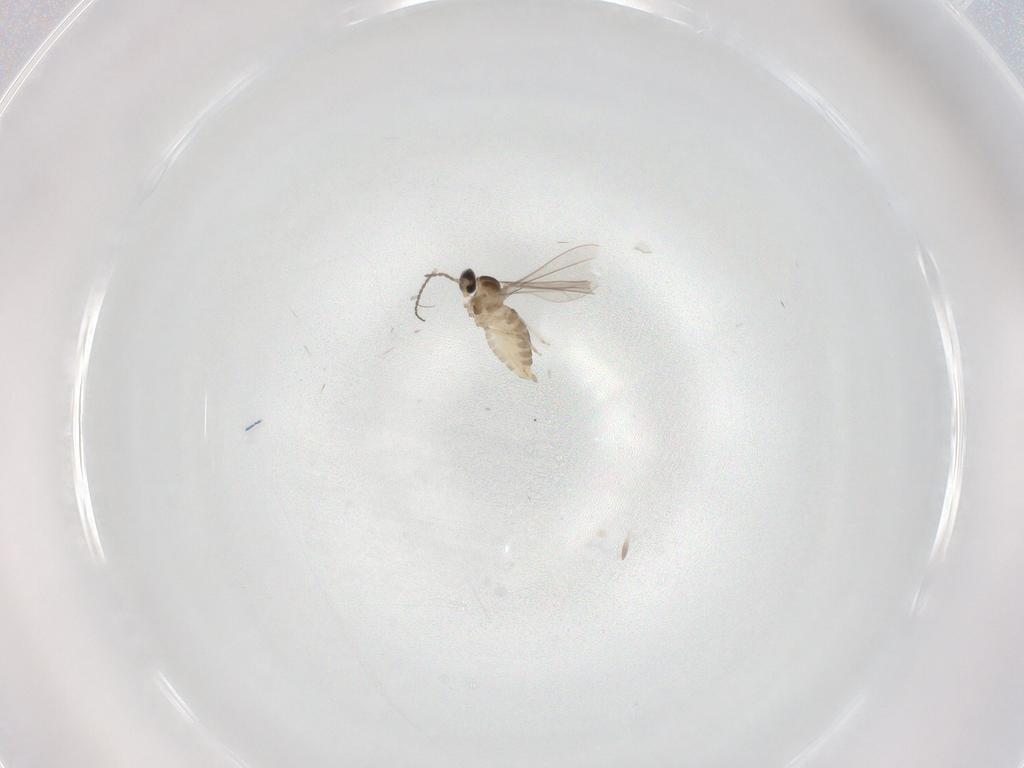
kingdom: Animalia
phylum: Arthropoda
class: Insecta
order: Diptera
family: Cecidomyiidae
